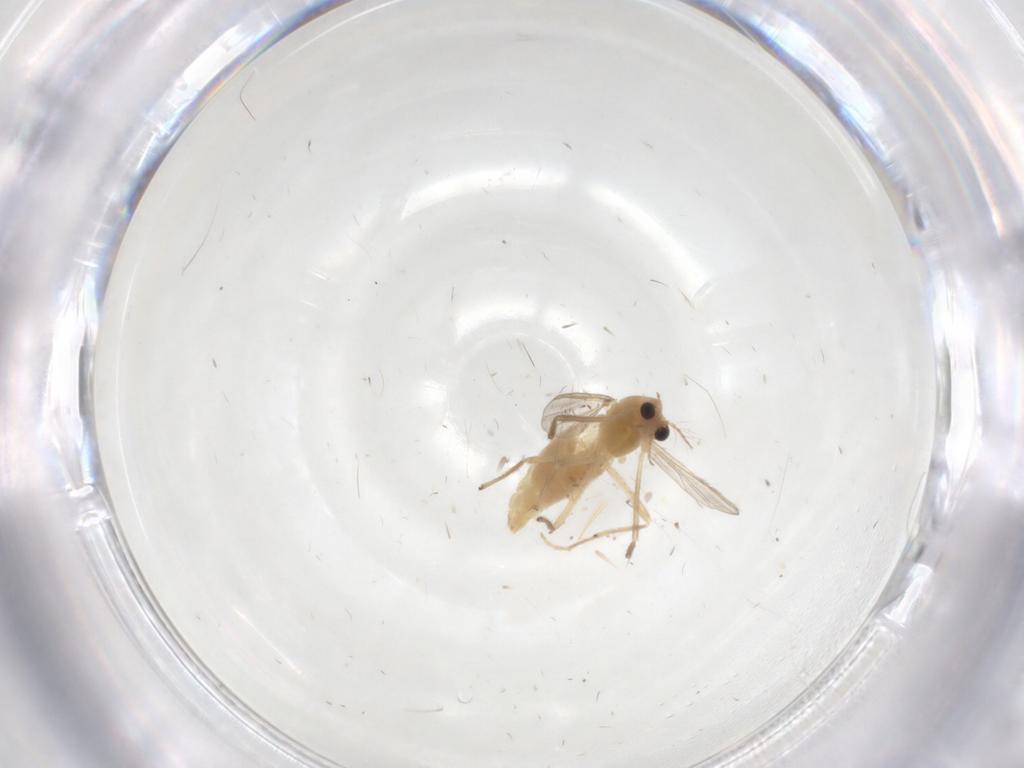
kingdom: Animalia
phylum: Arthropoda
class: Insecta
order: Diptera
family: Chironomidae
